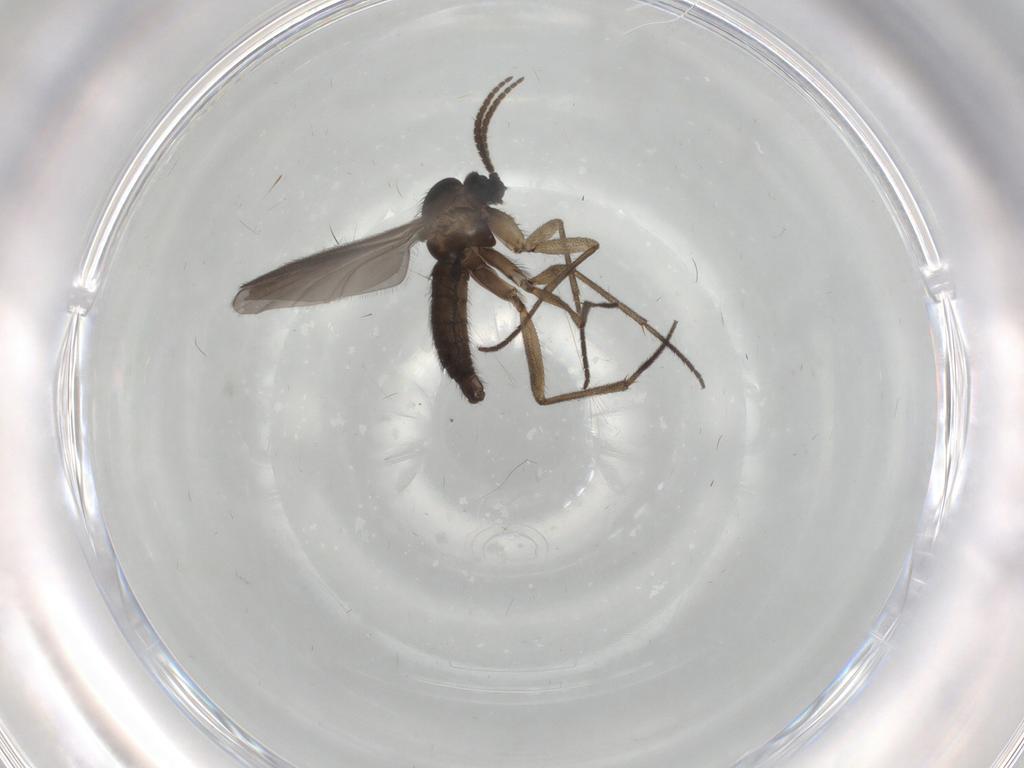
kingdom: Animalia
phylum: Arthropoda
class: Insecta
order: Diptera
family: Sciaridae
